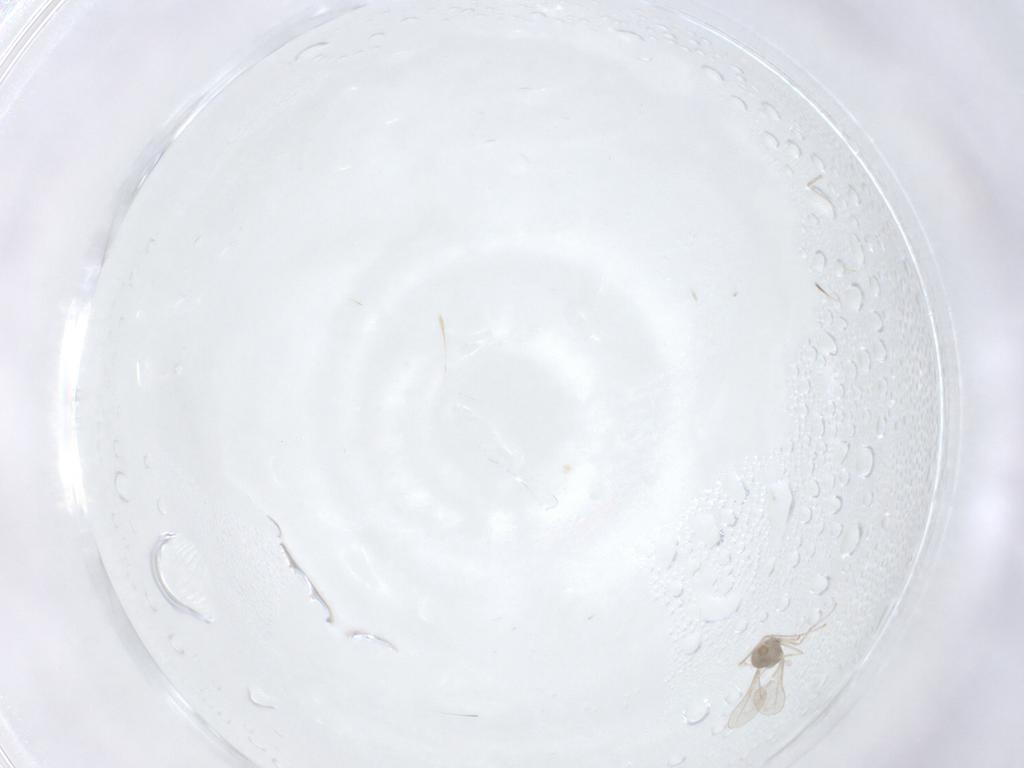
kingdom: Animalia
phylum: Arthropoda
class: Insecta
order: Diptera
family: Cecidomyiidae
